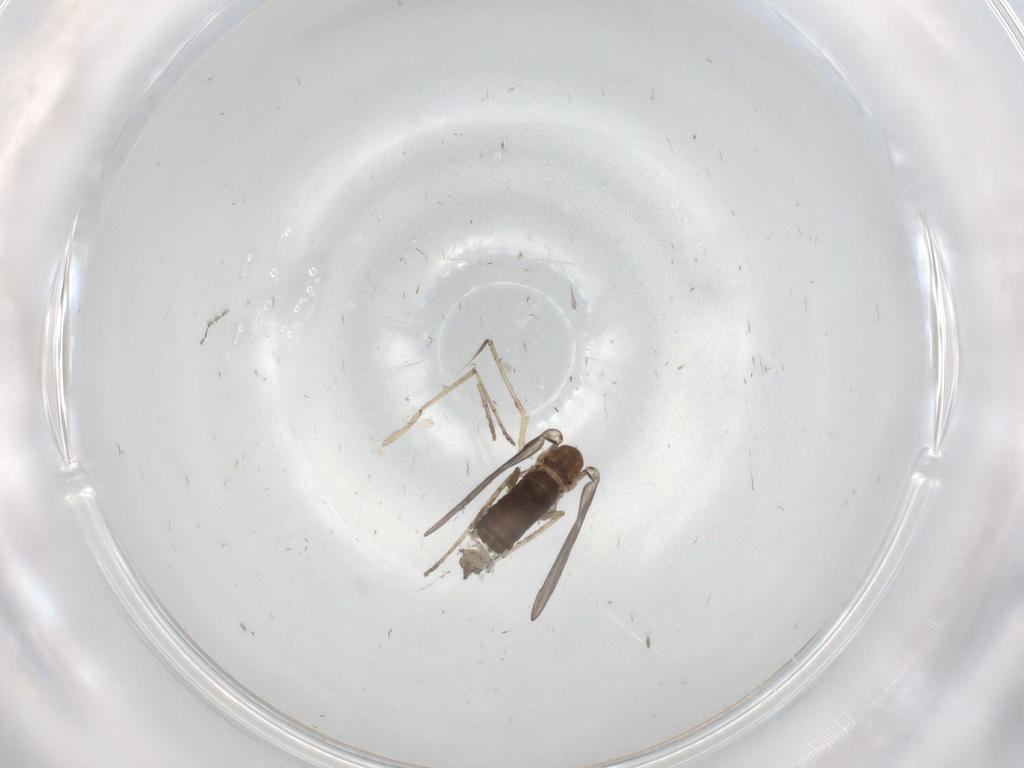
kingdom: Animalia
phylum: Arthropoda
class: Insecta
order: Diptera
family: Psychodidae
